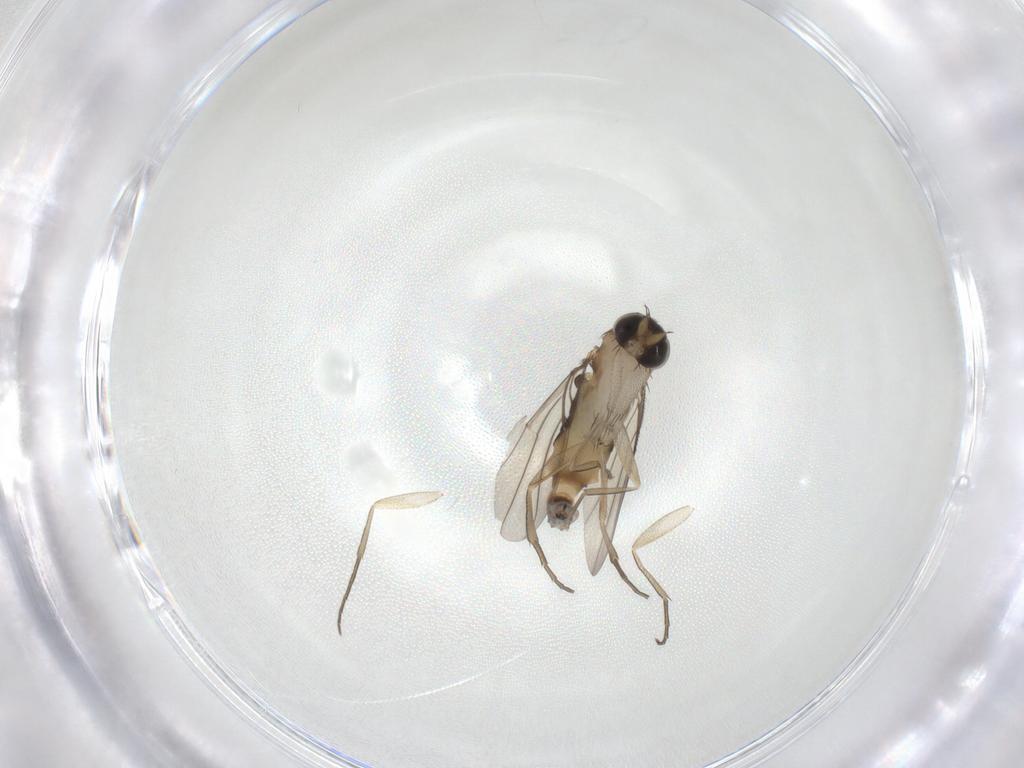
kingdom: Animalia
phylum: Arthropoda
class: Insecta
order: Diptera
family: Phoridae
